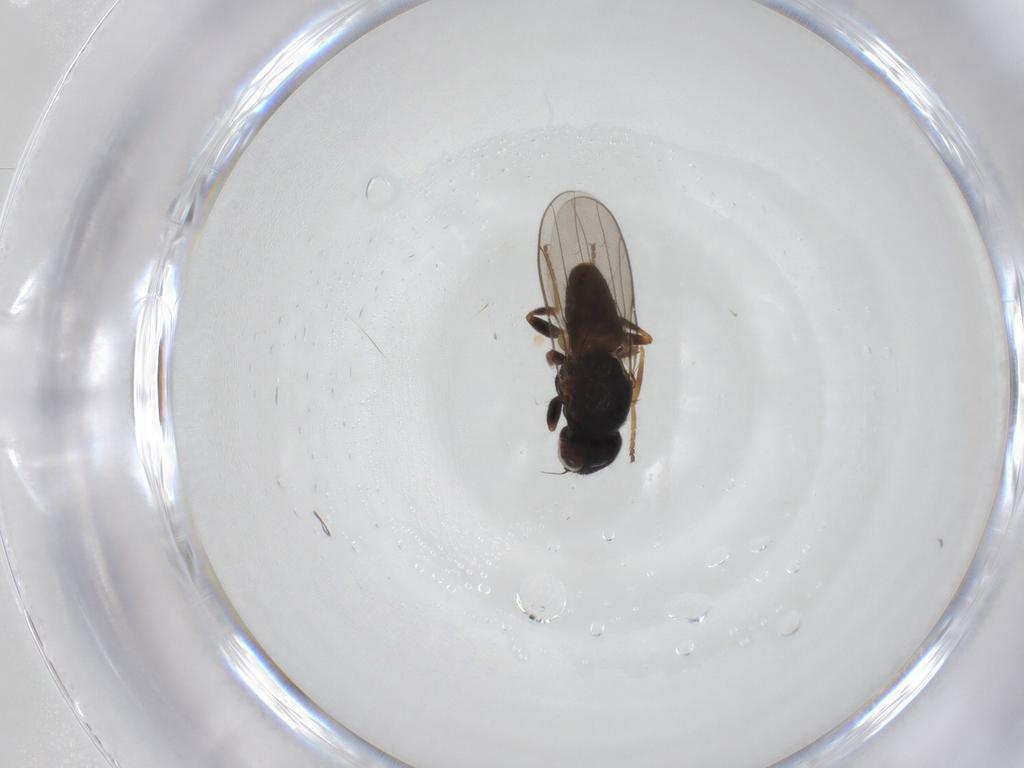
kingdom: Animalia
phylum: Arthropoda
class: Insecta
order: Diptera
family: Chloropidae
